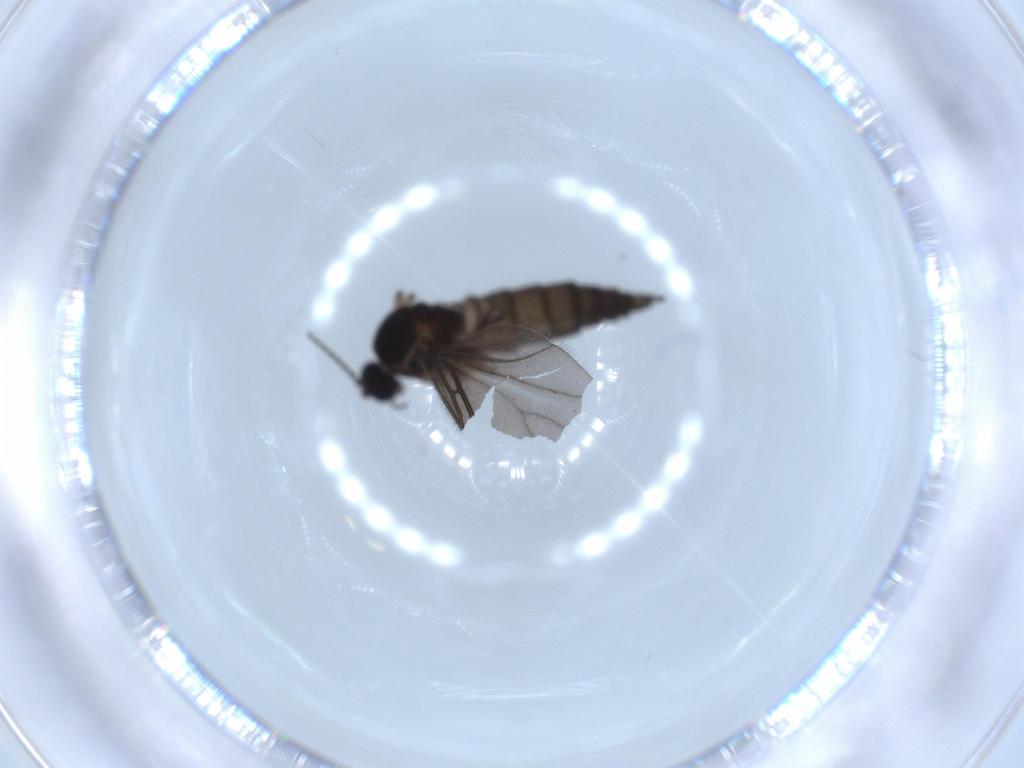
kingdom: Animalia
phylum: Arthropoda
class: Insecta
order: Diptera
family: Sciaridae
